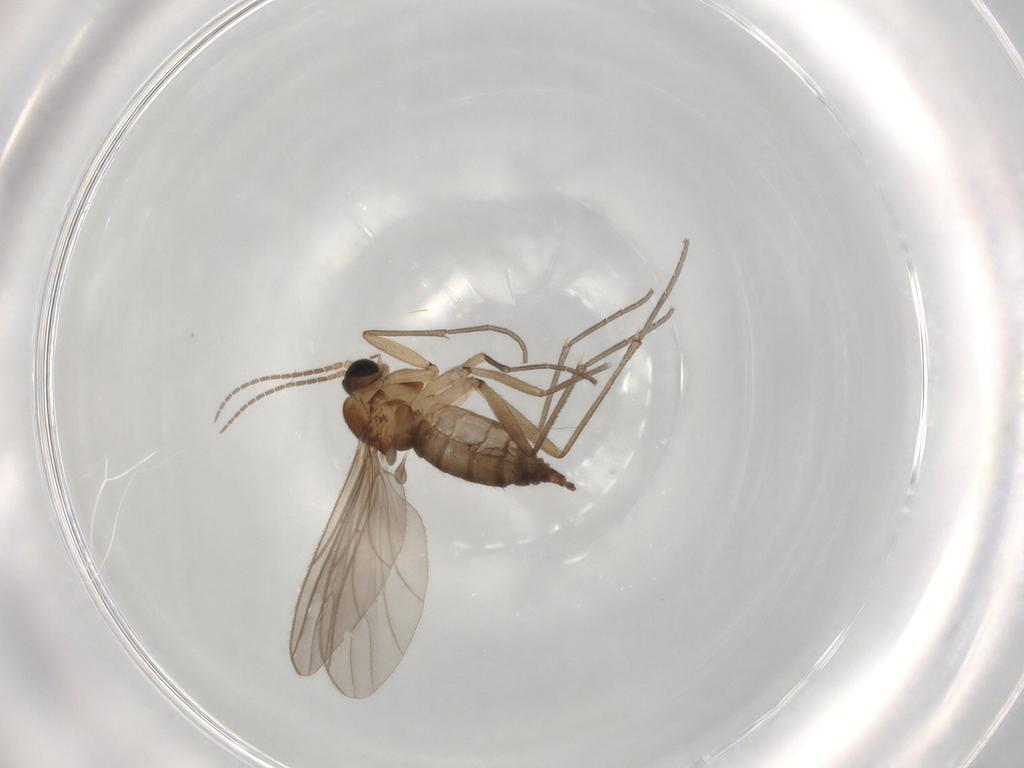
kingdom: Animalia
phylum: Arthropoda
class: Insecta
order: Diptera
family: Sciaridae
